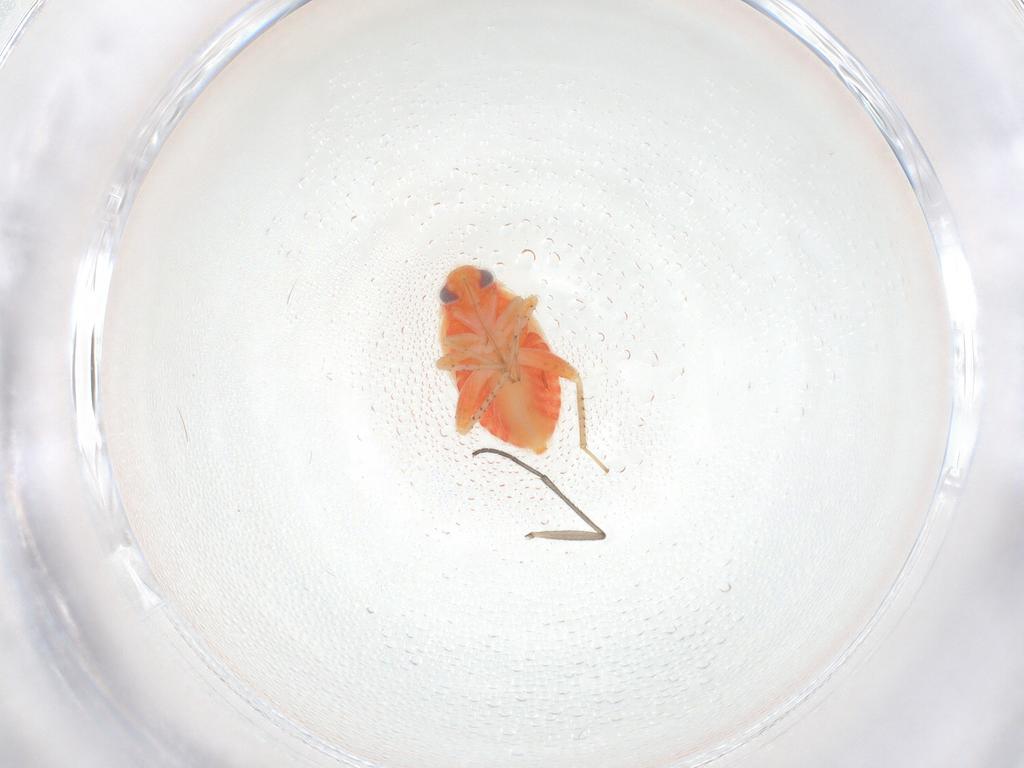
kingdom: Animalia
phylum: Arthropoda
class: Insecta
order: Hemiptera
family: Miridae
